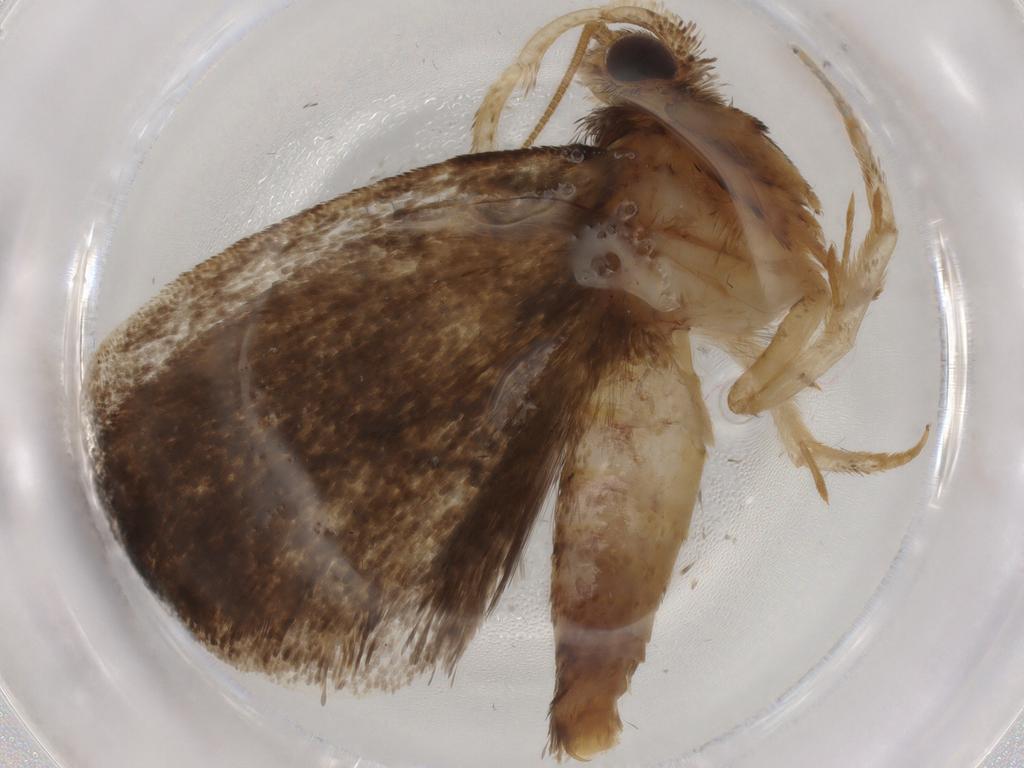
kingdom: Animalia
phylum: Arthropoda
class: Insecta
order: Lepidoptera
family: Tineidae
